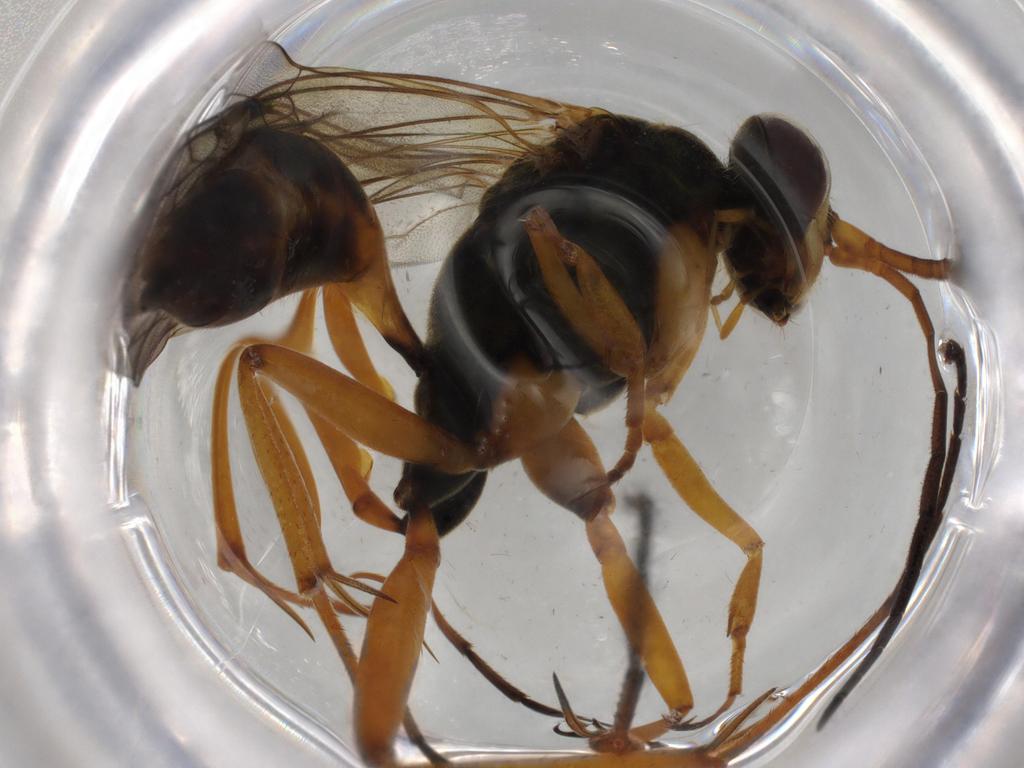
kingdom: Animalia
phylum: Arthropoda
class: Insecta
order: Hymenoptera
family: Pompilidae
